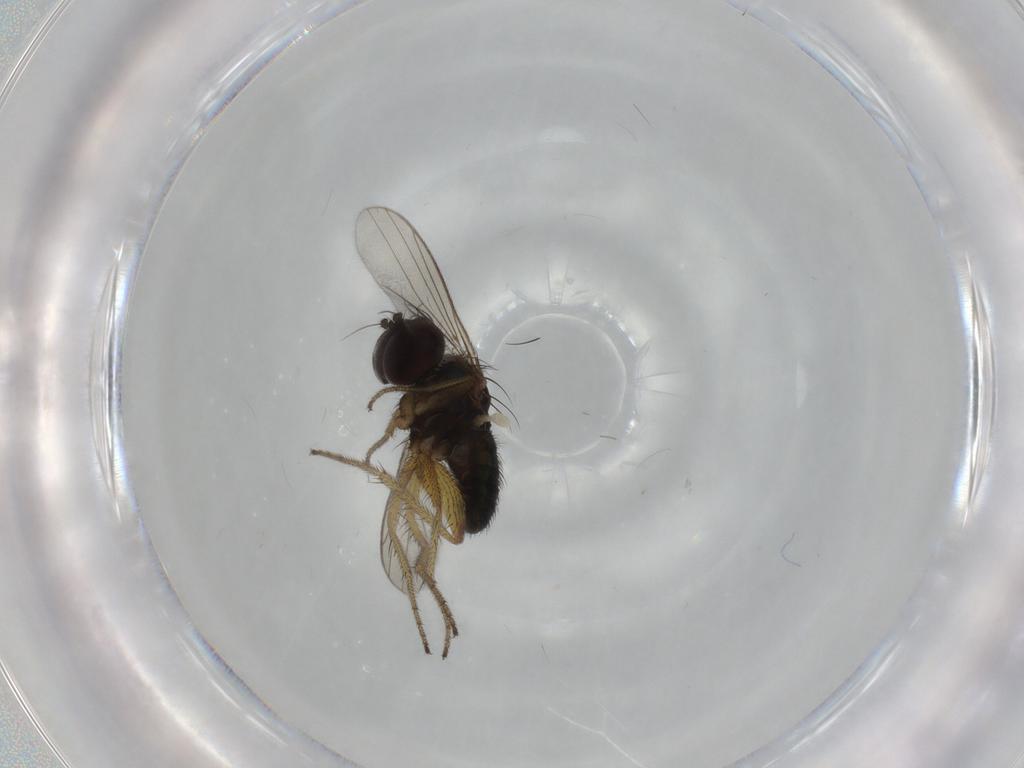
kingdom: Animalia
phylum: Arthropoda
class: Insecta
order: Diptera
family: Dolichopodidae
